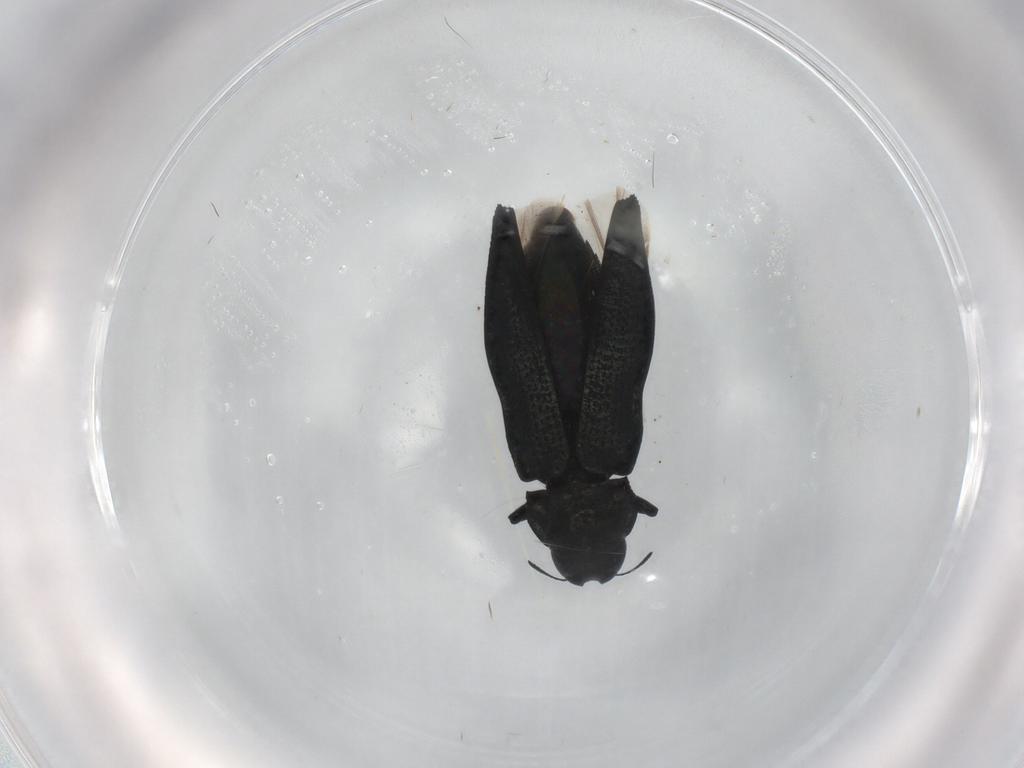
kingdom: Animalia
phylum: Arthropoda
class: Insecta
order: Coleoptera
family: Buprestidae
